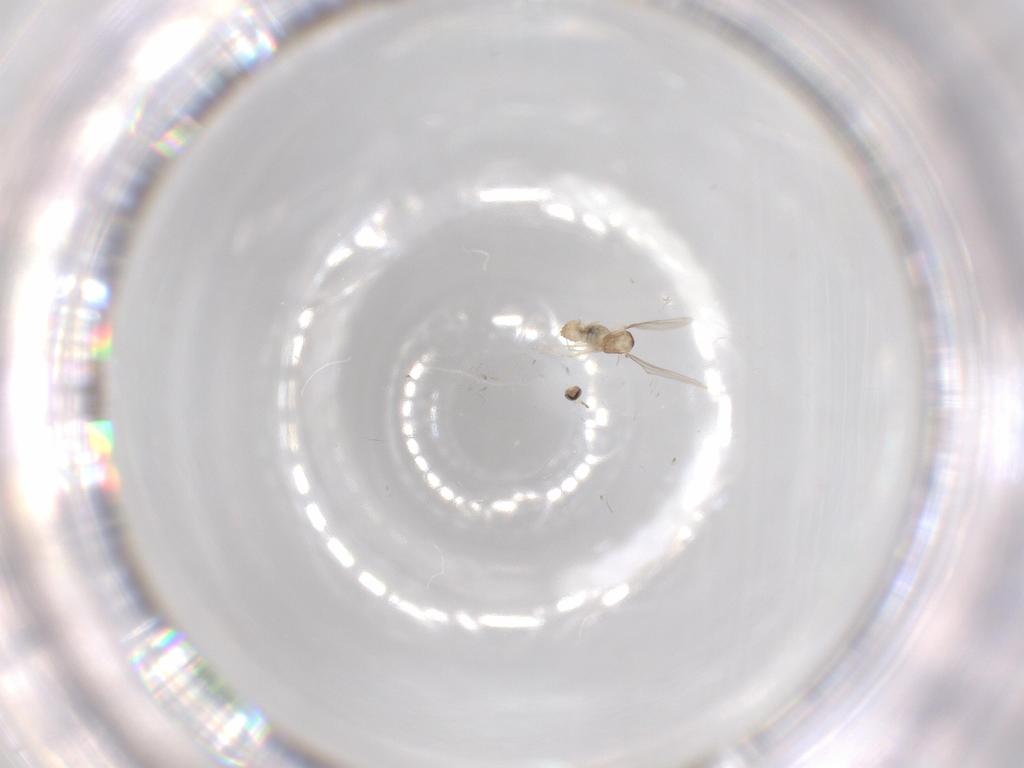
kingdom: Animalia
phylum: Arthropoda
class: Insecta
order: Diptera
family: Cecidomyiidae
